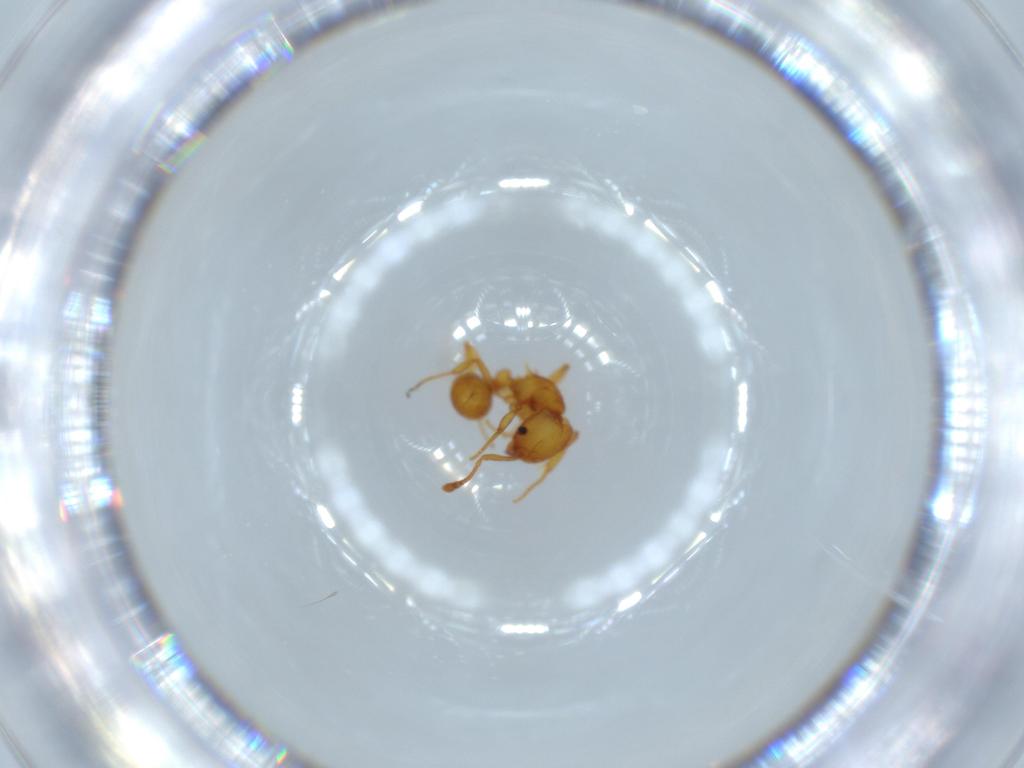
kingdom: Animalia
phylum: Arthropoda
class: Insecta
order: Hymenoptera
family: Formicidae
